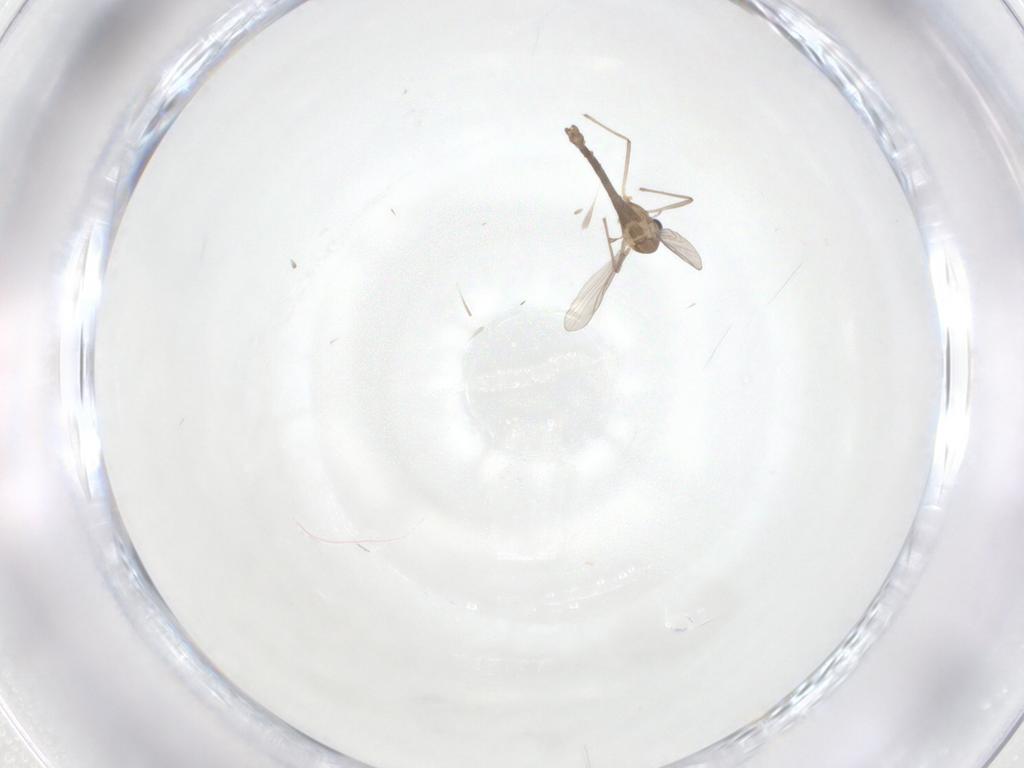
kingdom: Animalia
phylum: Arthropoda
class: Insecta
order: Diptera
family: Chironomidae
